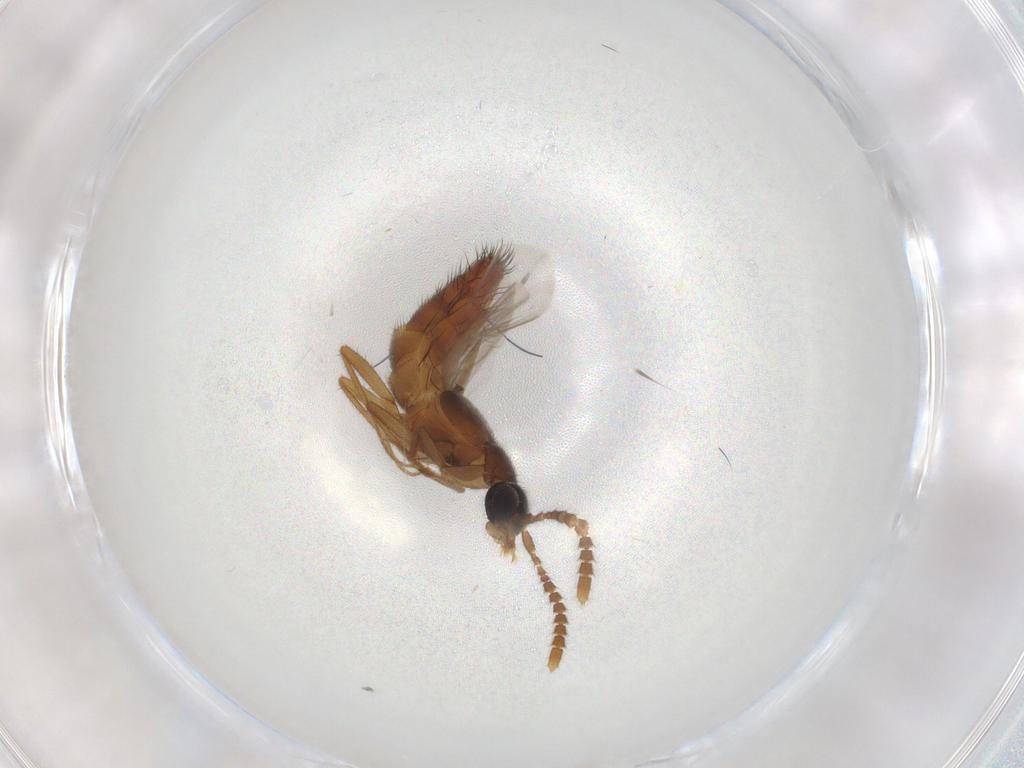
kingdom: Animalia
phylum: Arthropoda
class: Insecta
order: Coleoptera
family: Staphylinidae
